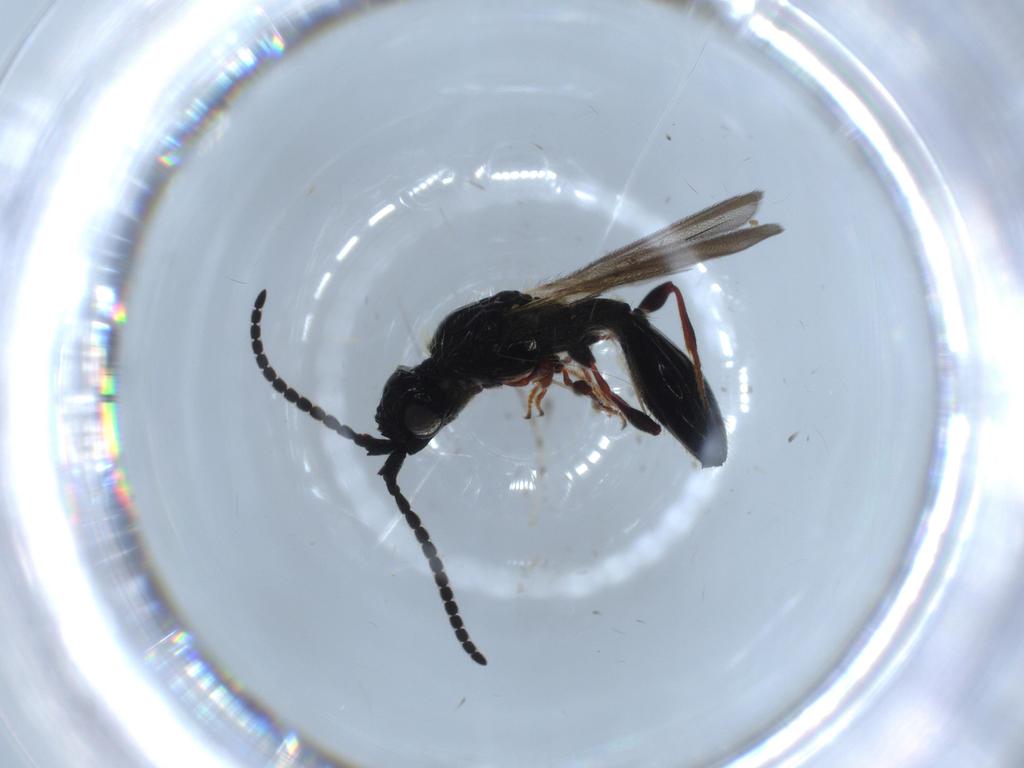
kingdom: Animalia
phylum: Arthropoda
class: Insecta
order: Hymenoptera
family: Diapriidae
